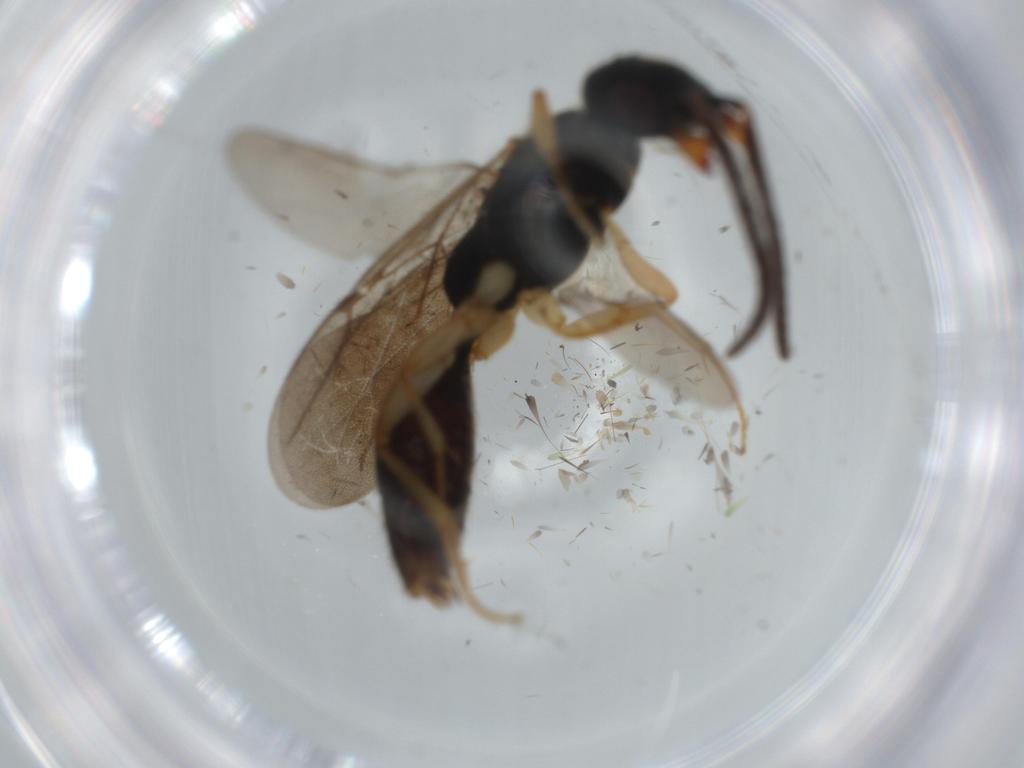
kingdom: Animalia
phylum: Arthropoda
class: Insecta
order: Hymenoptera
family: Bethylidae
